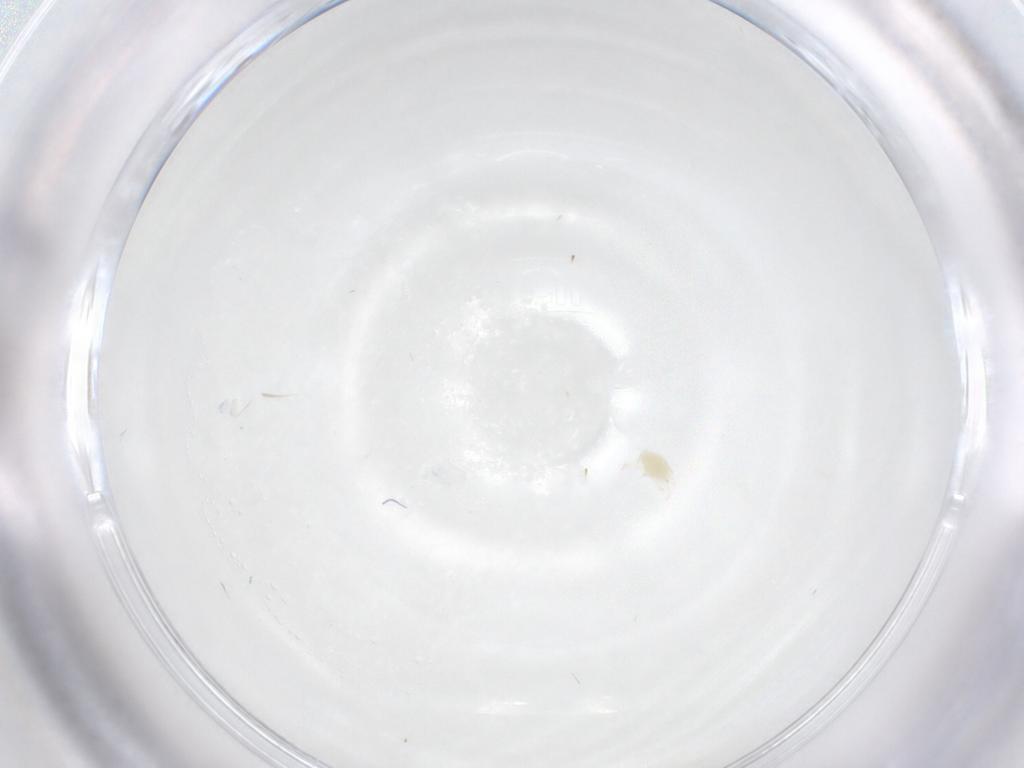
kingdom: Animalia
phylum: Arthropoda
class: Arachnida
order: Trombidiformes
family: Tetranychidae
